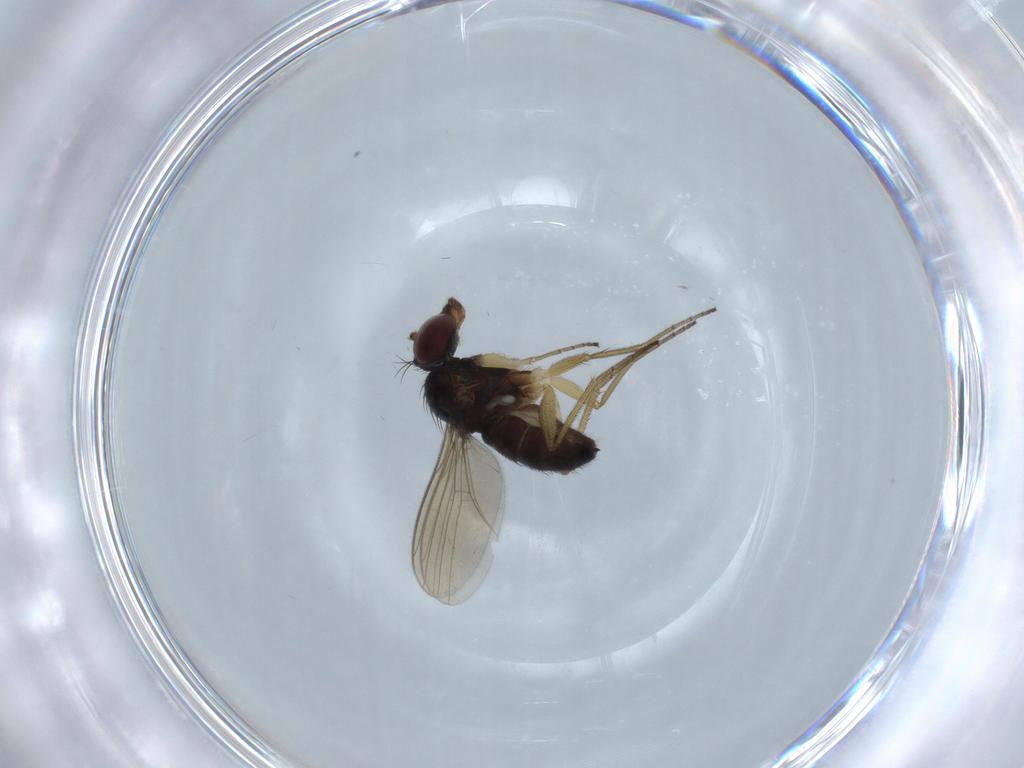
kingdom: Animalia
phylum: Arthropoda
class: Insecta
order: Diptera
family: Dolichopodidae
